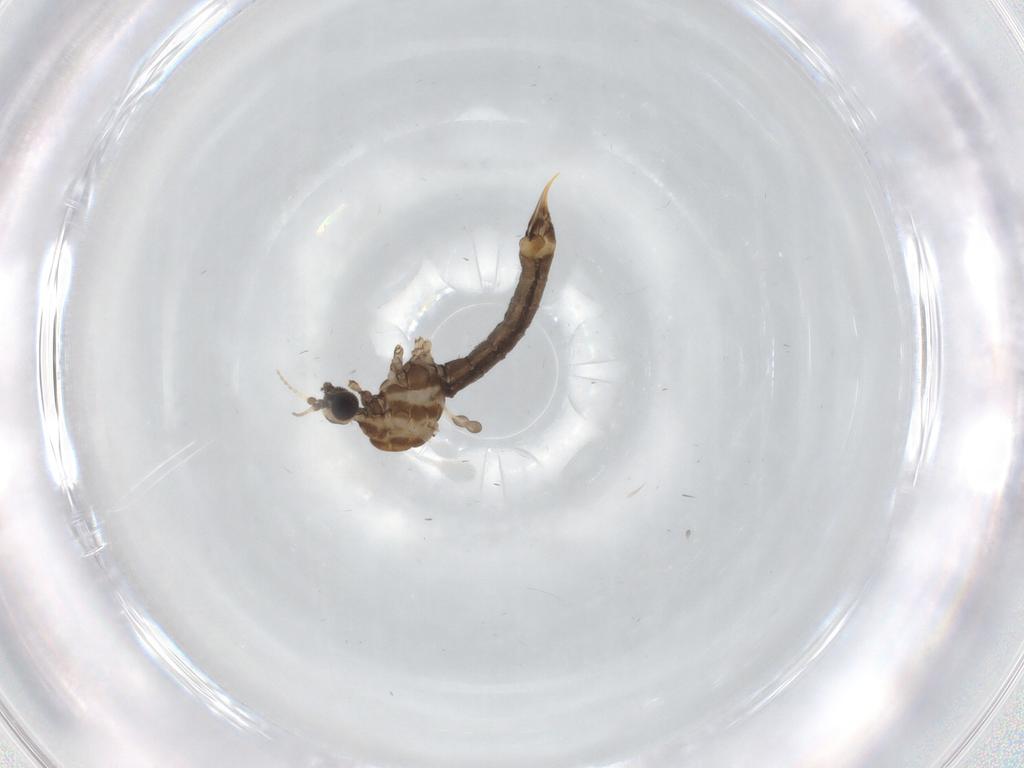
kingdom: Animalia
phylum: Arthropoda
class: Insecta
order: Diptera
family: Limoniidae
